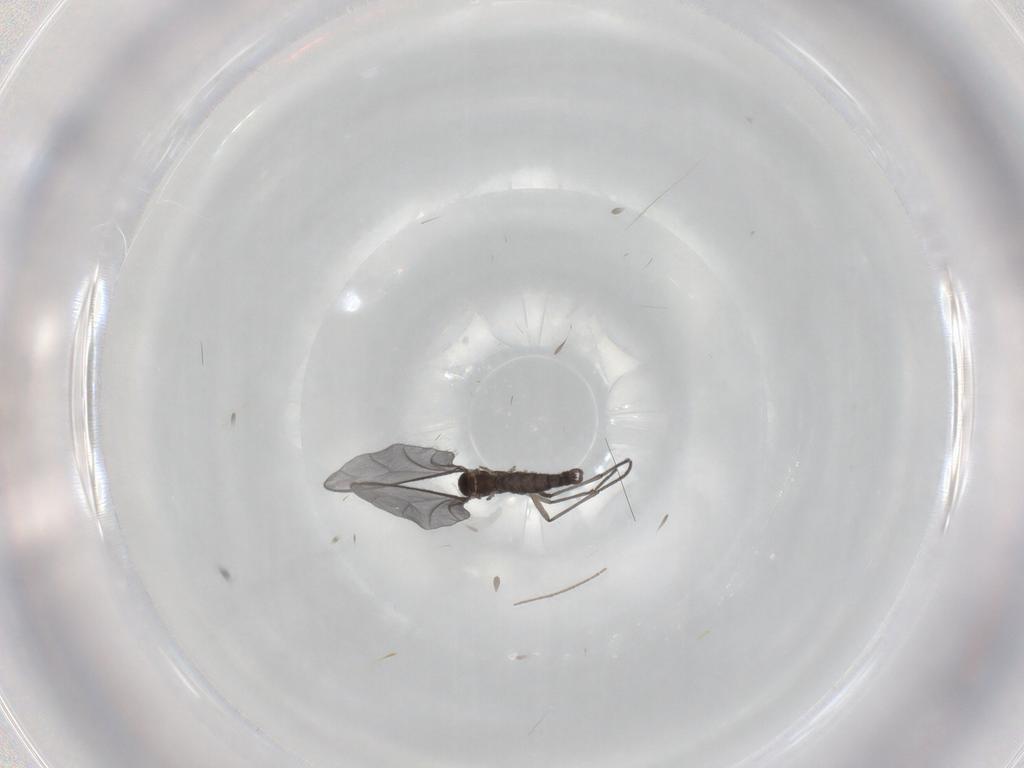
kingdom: Animalia
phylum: Arthropoda
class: Insecta
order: Diptera
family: Sciaridae
